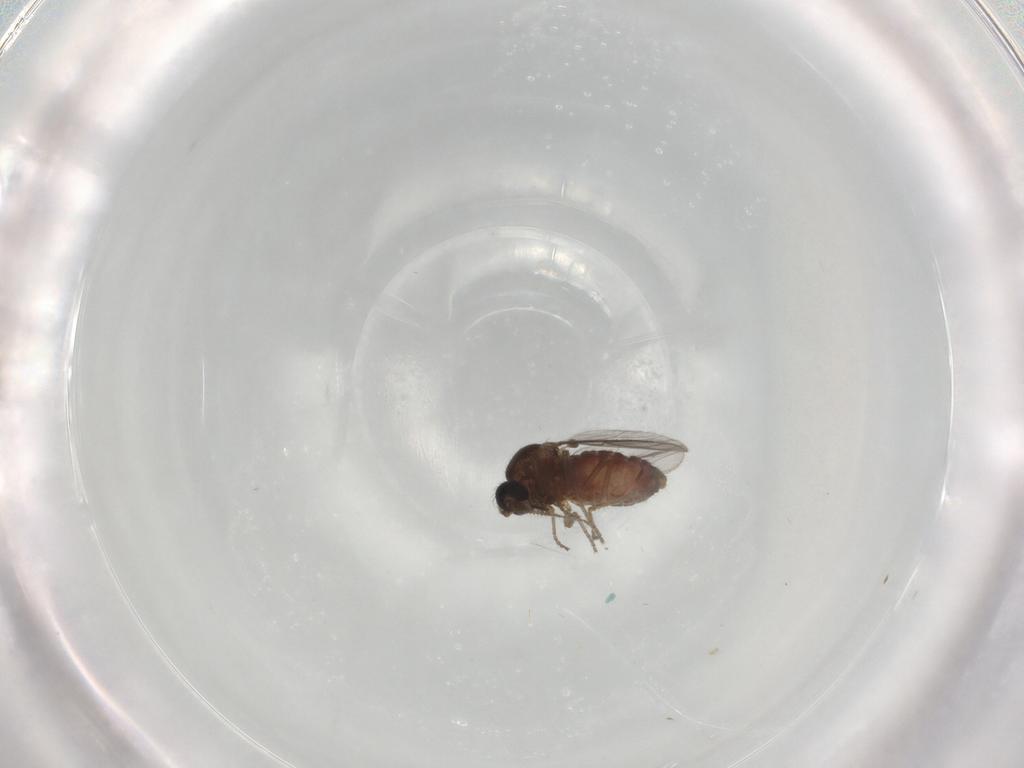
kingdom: Animalia
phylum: Arthropoda
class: Insecta
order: Diptera
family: Ceratopogonidae
